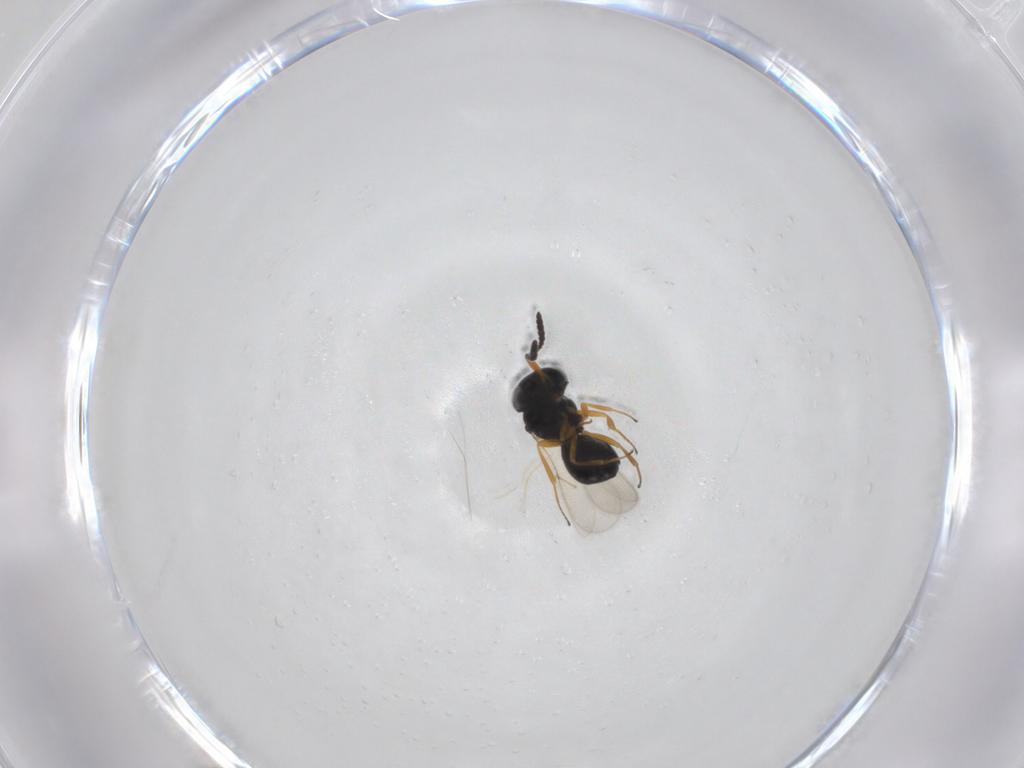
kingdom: Animalia
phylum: Arthropoda
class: Insecta
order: Hymenoptera
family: Scelionidae
